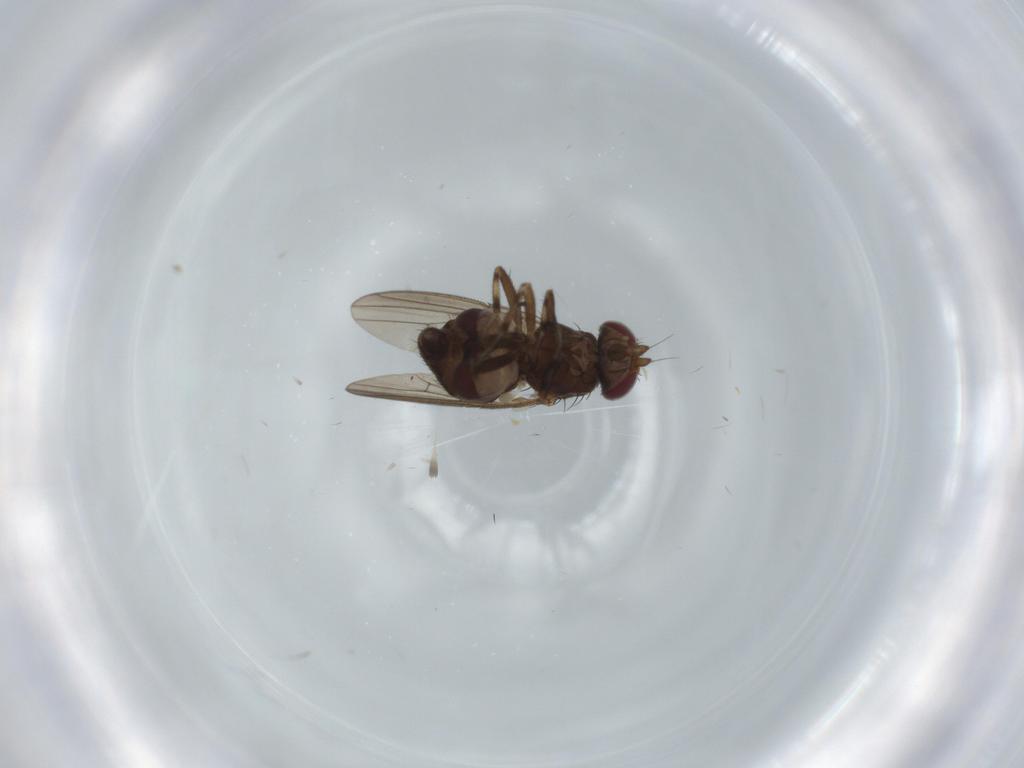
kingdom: Animalia
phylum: Arthropoda
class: Insecta
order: Diptera
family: Heleomyzidae
